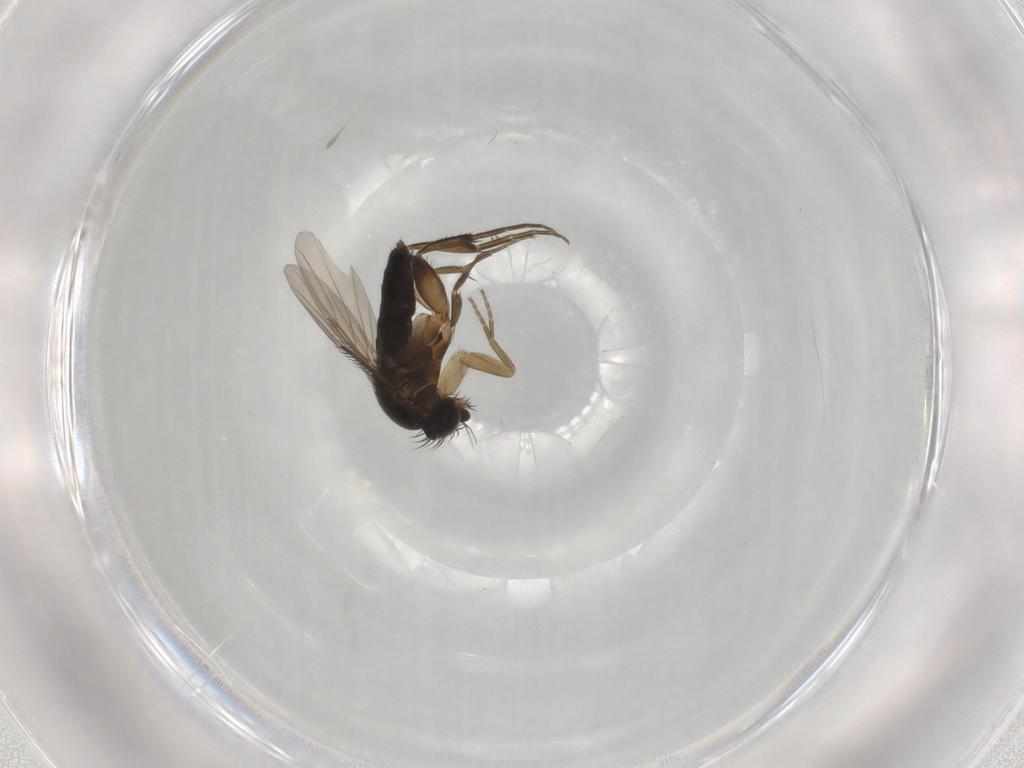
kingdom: Animalia
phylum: Arthropoda
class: Insecta
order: Diptera
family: Phoridae
